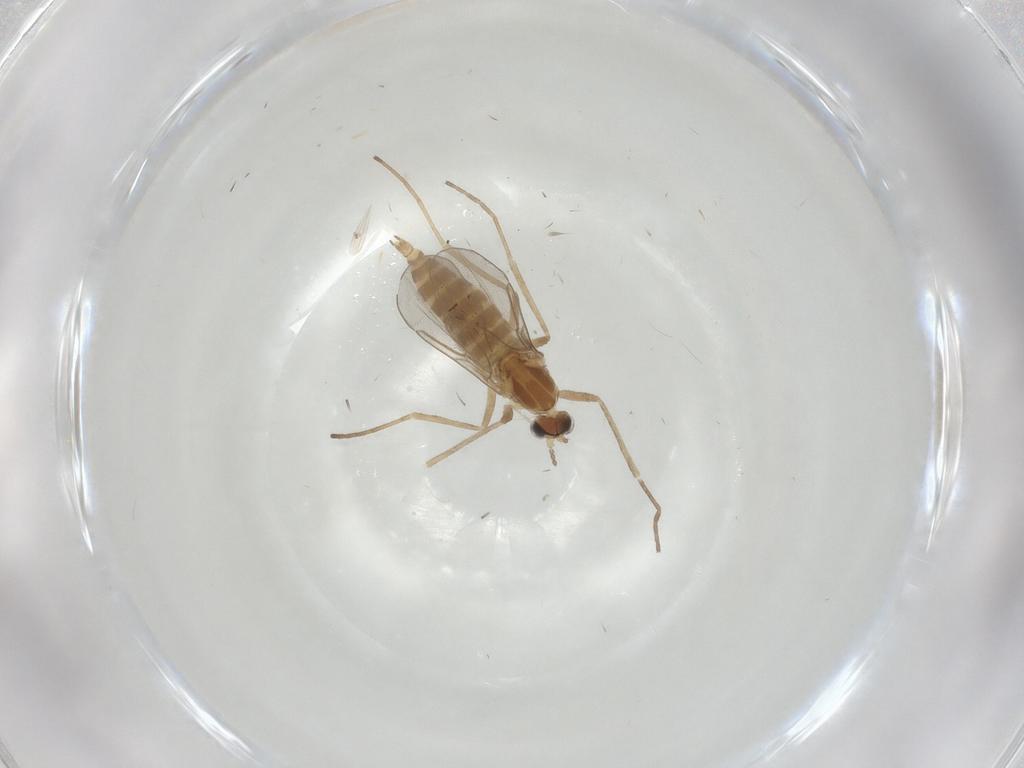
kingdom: Animalia
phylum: Arthropoda
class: Insecta
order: Diptera
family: Cecidomyiidae
